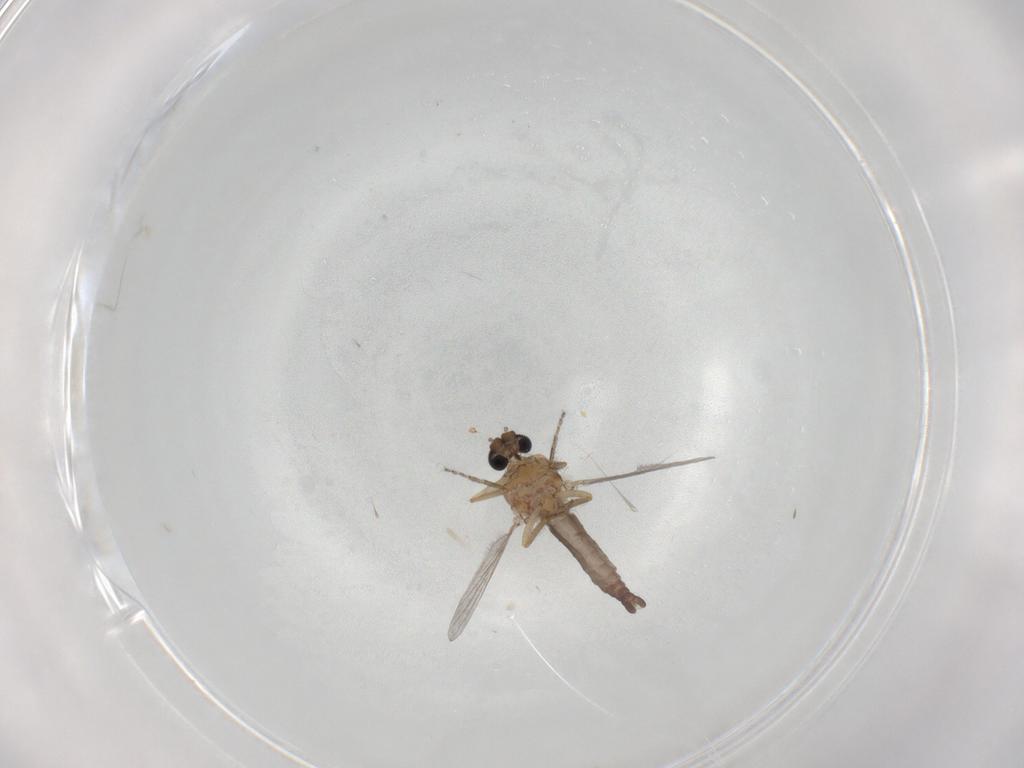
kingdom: Animalia
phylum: Arthropoda
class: Insecta
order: Diptera
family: Ceratopogonidae
